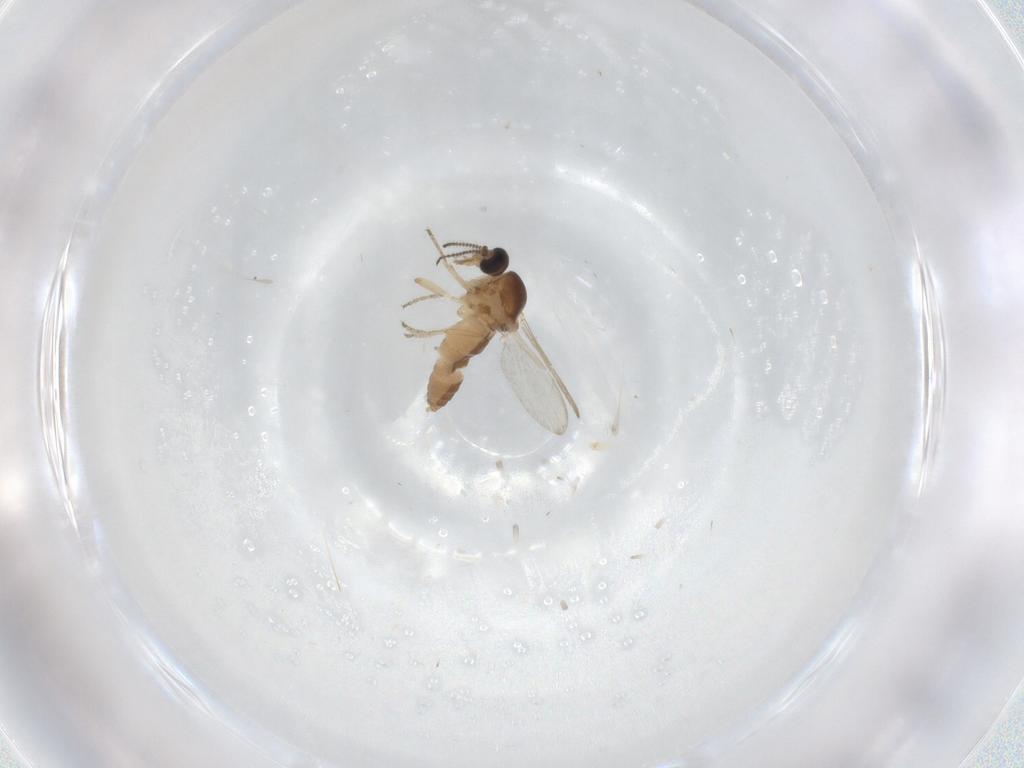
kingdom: Animalia
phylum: Arthropoda
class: Insecta
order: Diptera
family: Ceratopogonidae
